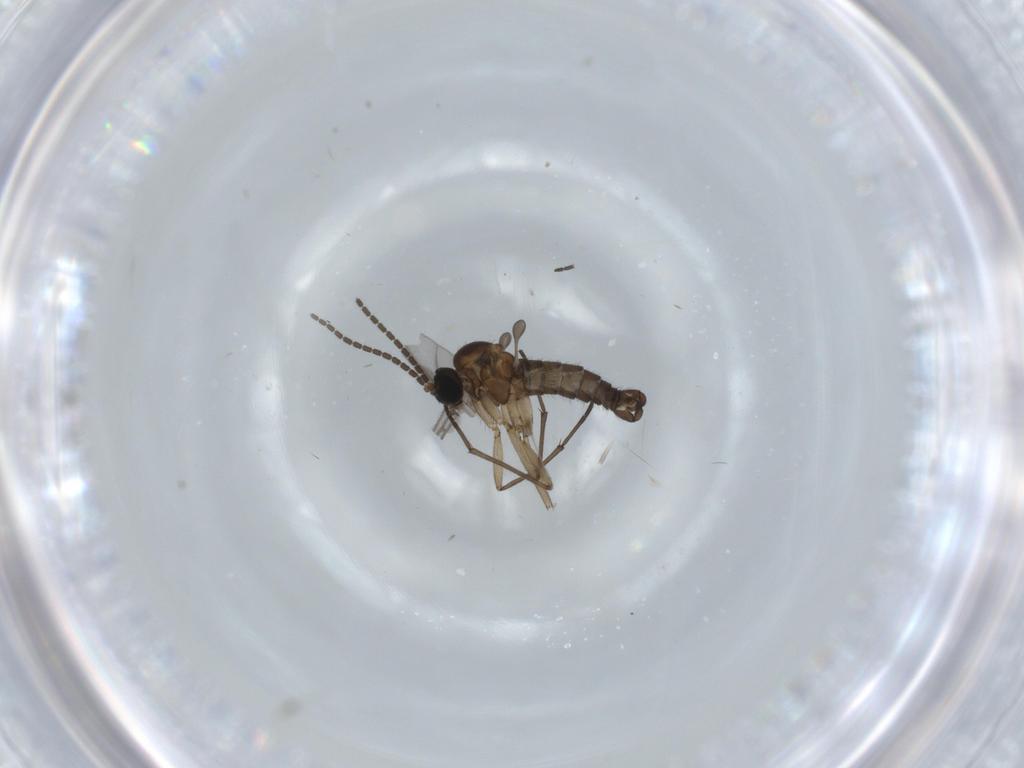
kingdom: Animalia
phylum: Arthropoda
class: Insecta
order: Diptera
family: Sciaridae
